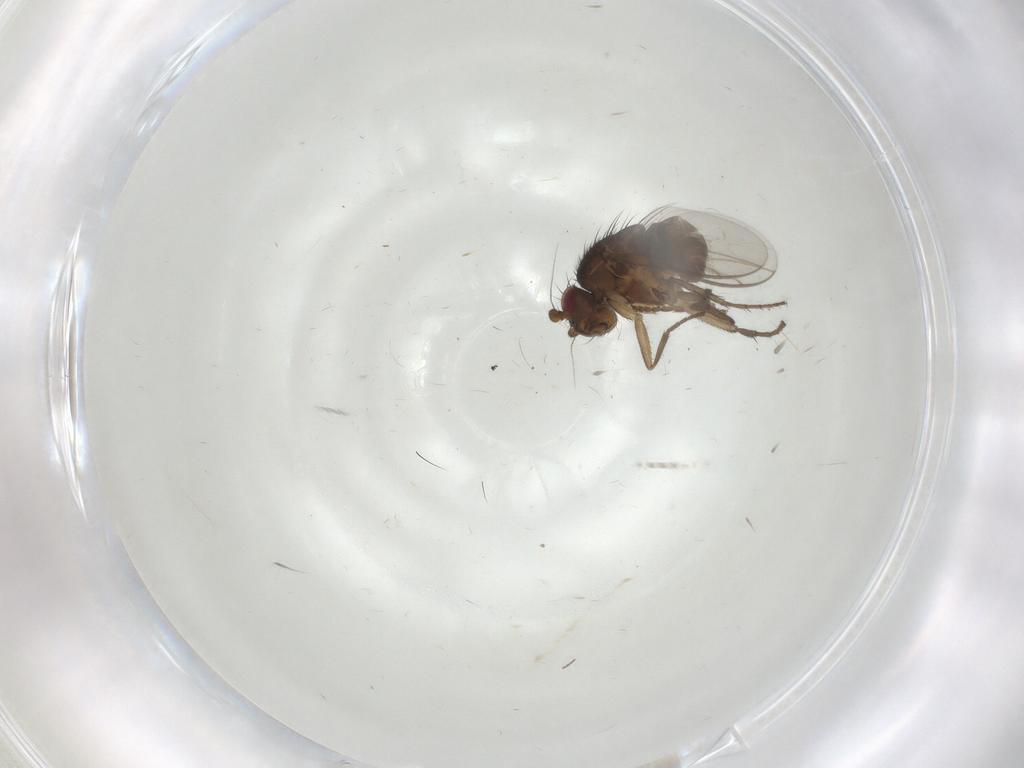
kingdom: Animalia
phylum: Arthropoda
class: Insecta
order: Diptera
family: Sphaeroceridae
